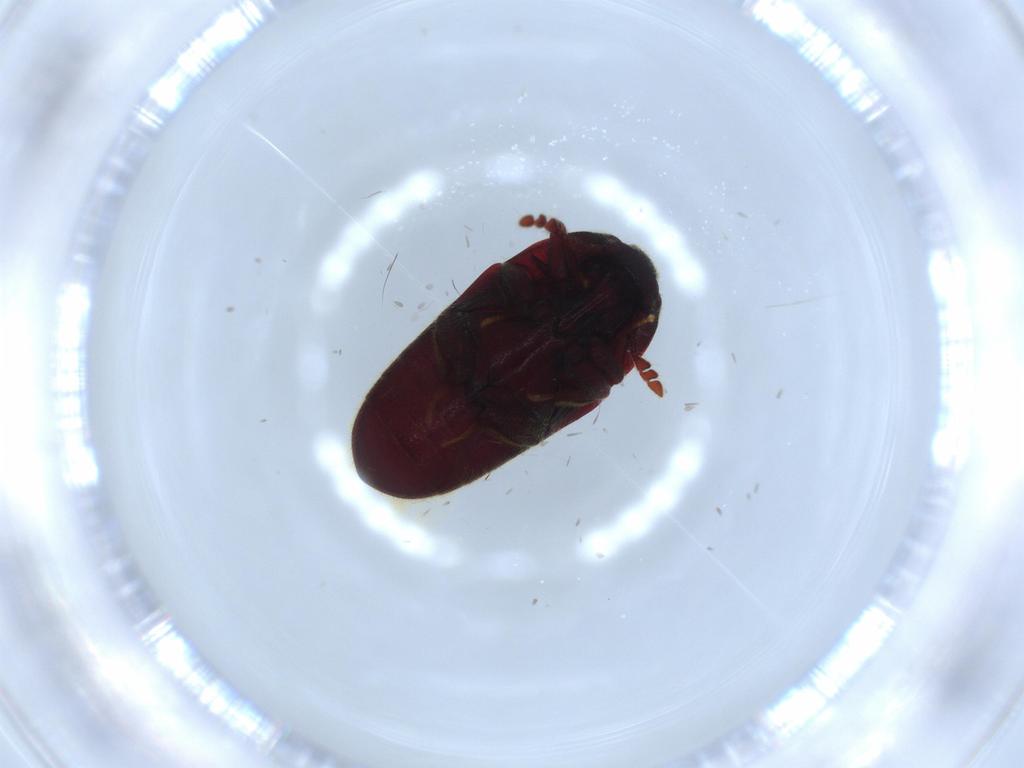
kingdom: Animalia
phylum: Arthropoda
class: Insecta
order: Coleoptera
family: Throscidae
